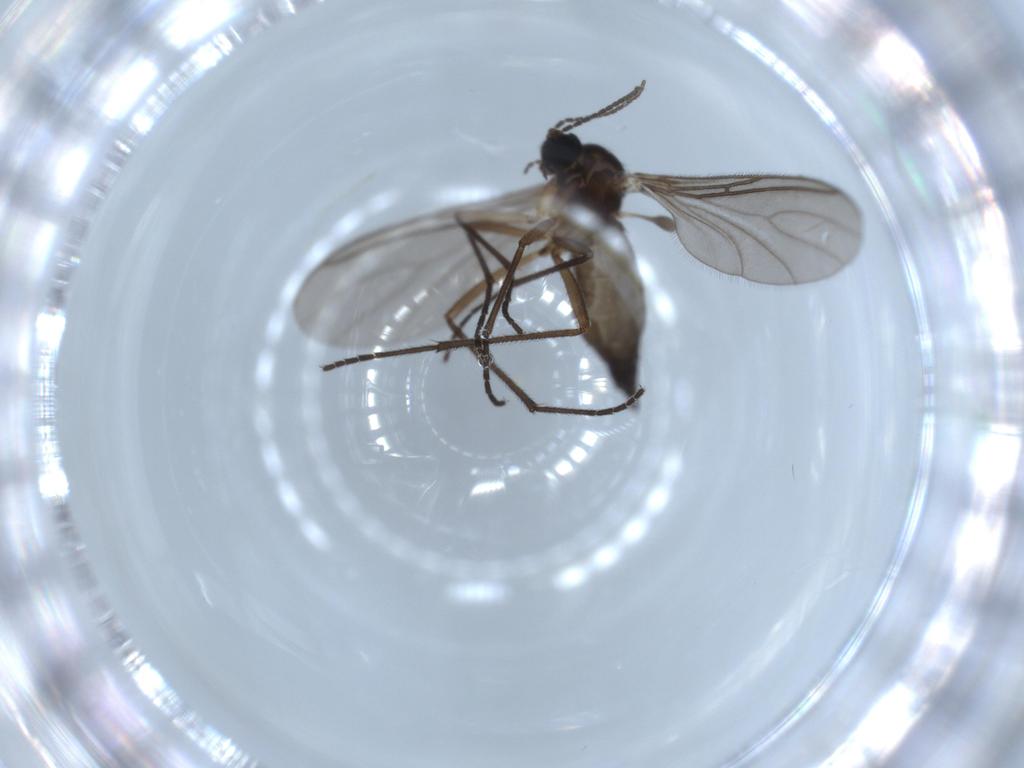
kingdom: Animalia
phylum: Arthropoda
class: Insecta
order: Diptera
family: Sciaridae
